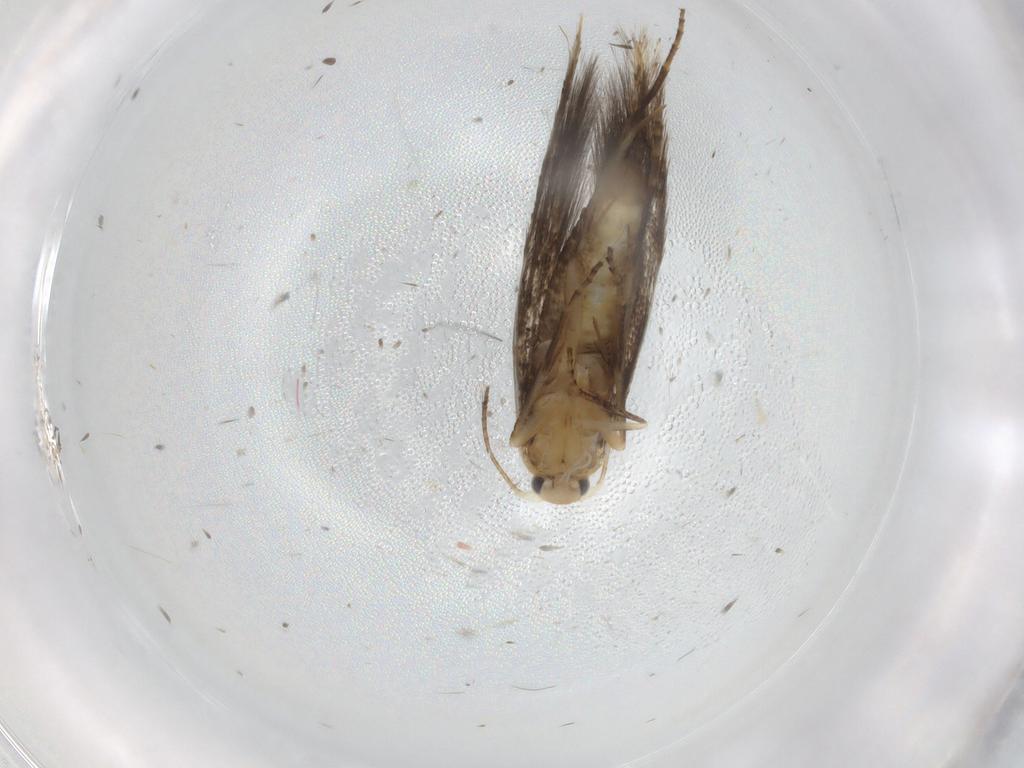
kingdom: Animalia
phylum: Arthropoda
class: Insecta
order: Lepidoptera
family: Bucculatricidae
